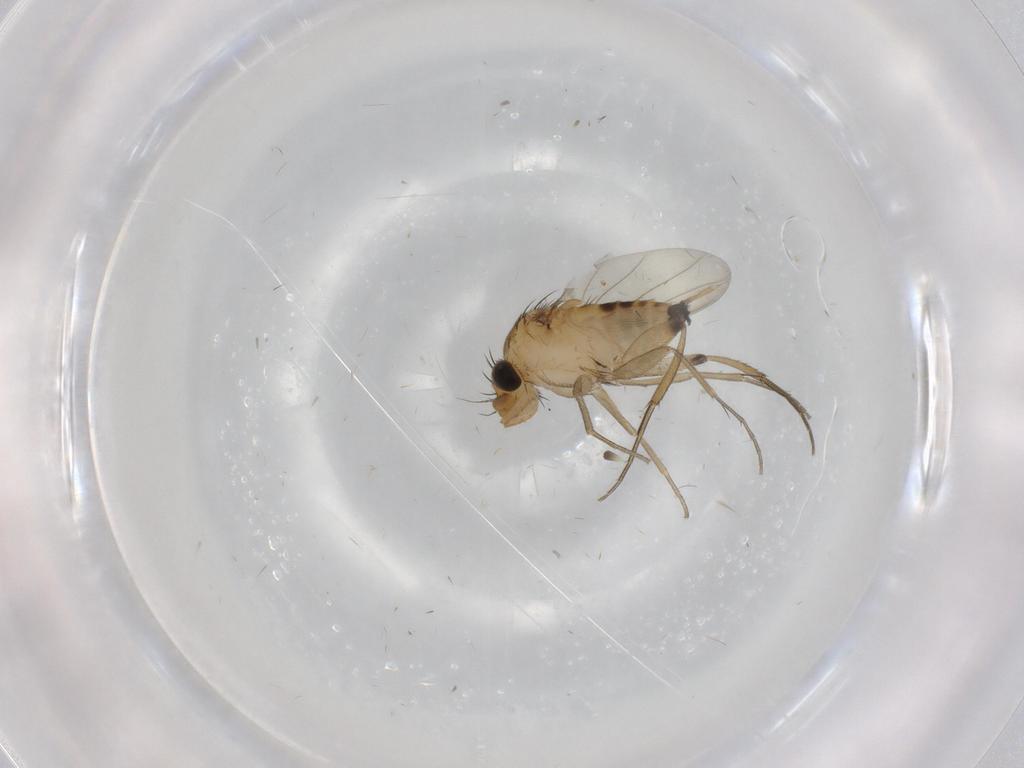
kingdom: Animalia
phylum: Arthropoda
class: Insecta
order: Diptera
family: Phoridae
